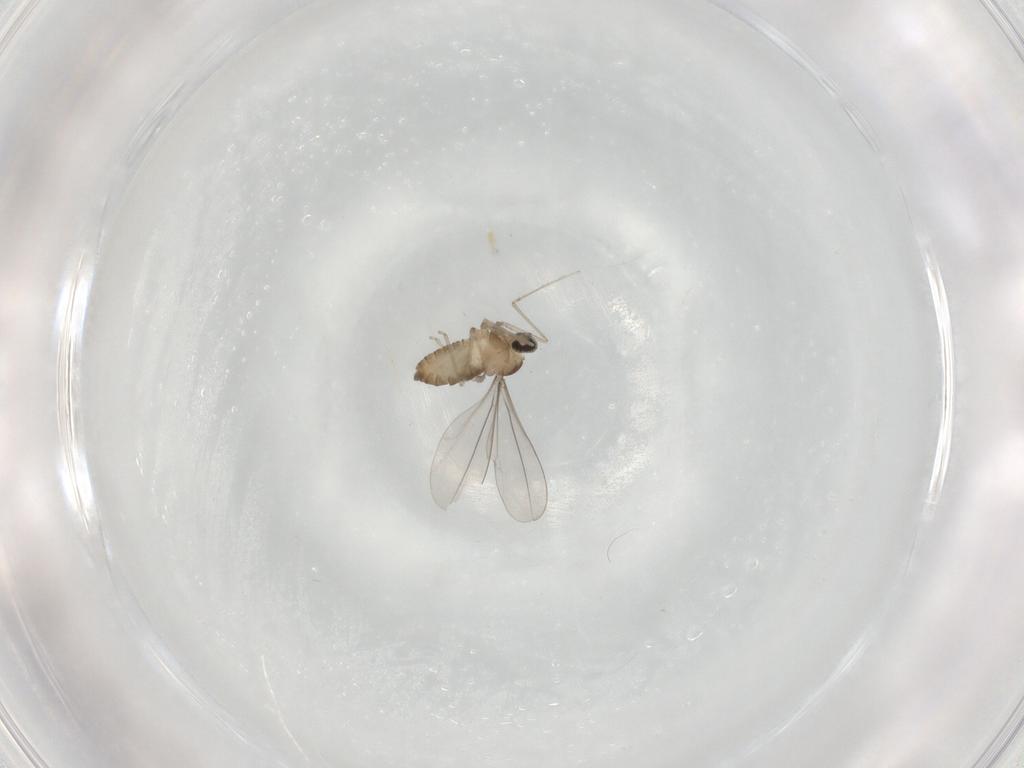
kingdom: Animalia
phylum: Arthropoda
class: Insecta
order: Diptera
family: Cecidomyiidae
